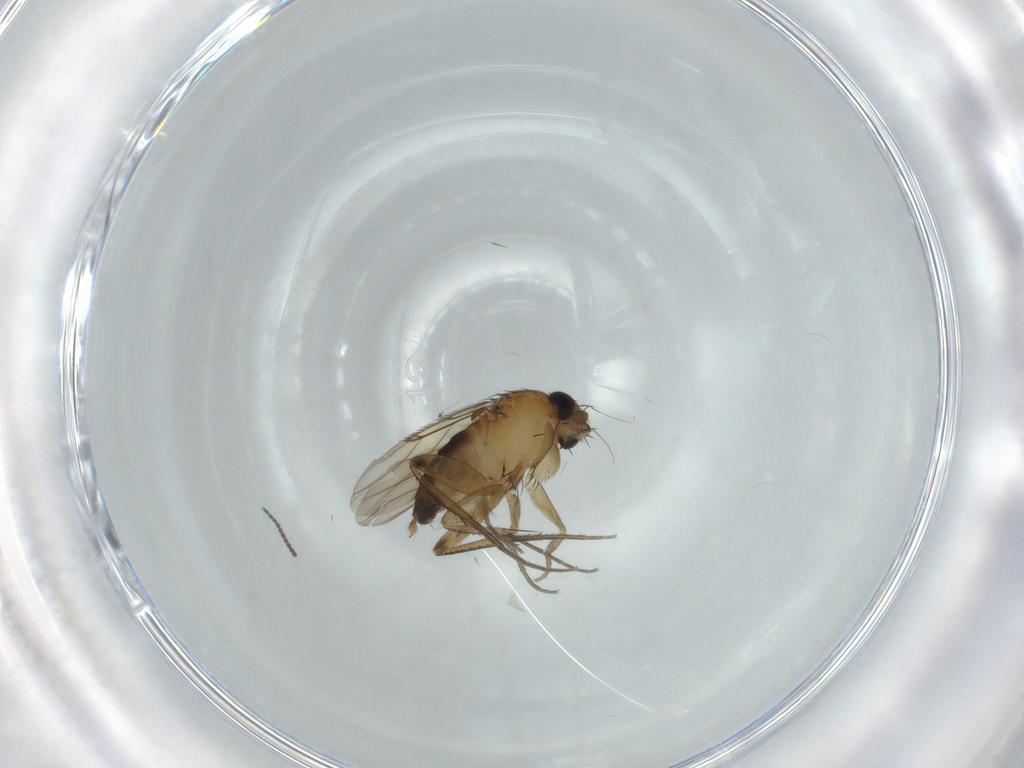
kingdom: Animalia
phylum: Arthropoda
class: Insecta
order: Diptera
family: Phoridae
